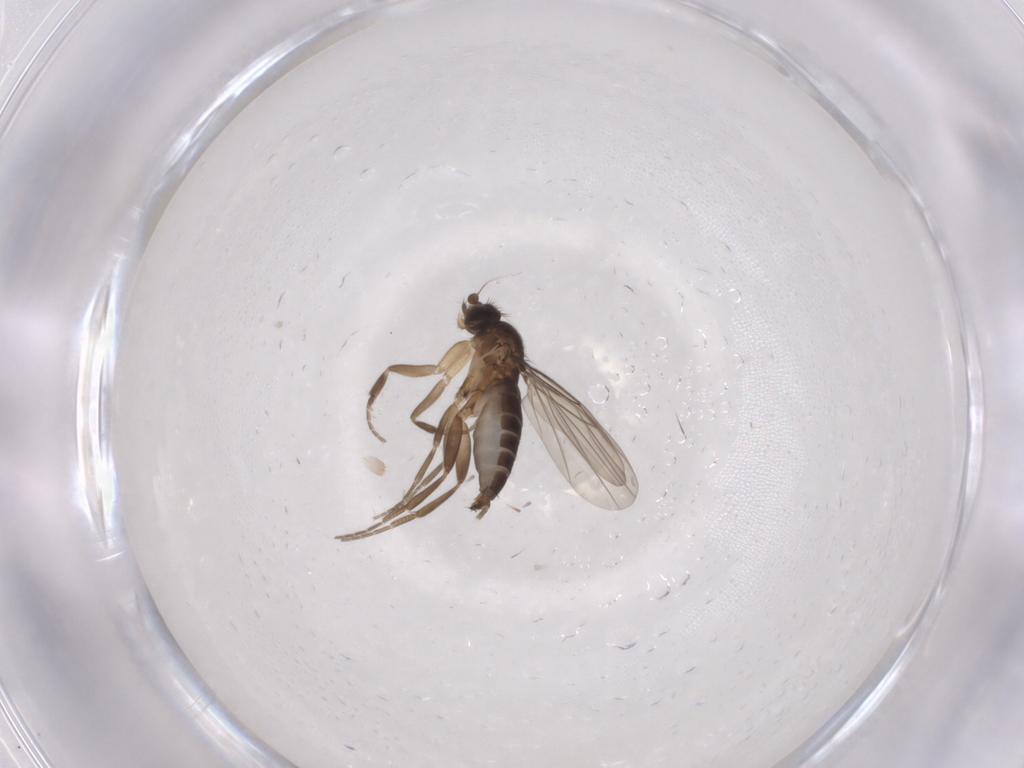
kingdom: Animalia
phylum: Arthropoda
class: Insecta
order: Diptera
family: Phoridae
